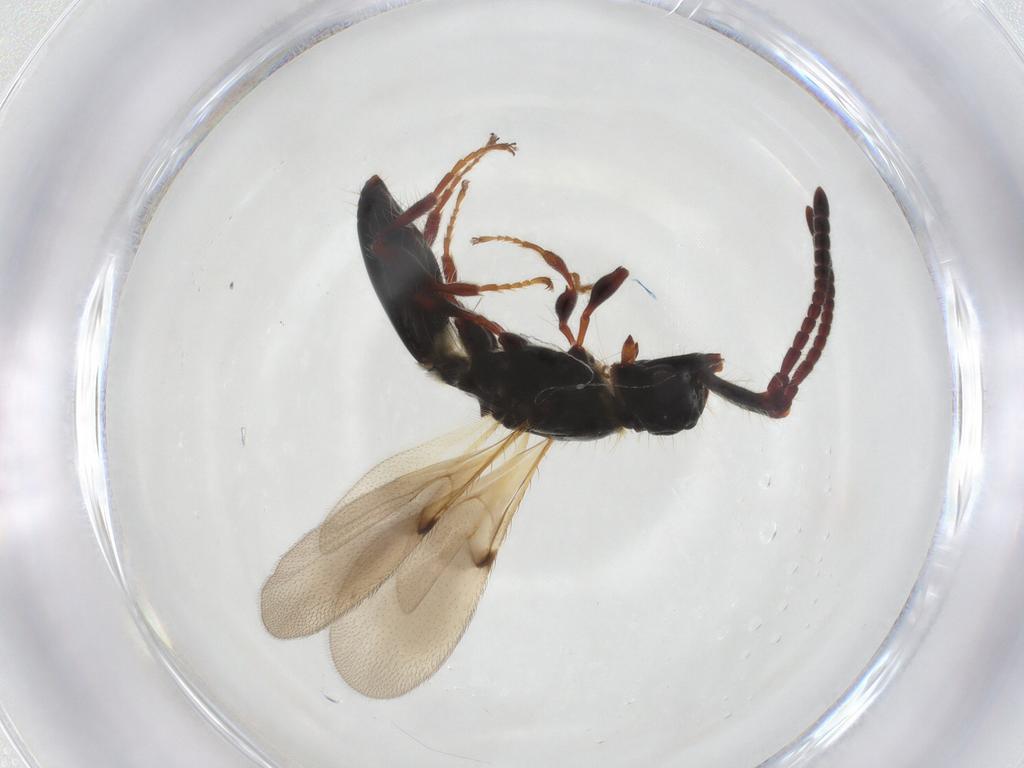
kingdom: Animalia
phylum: Arthropoda
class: Insecta
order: Hymenoptera
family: Diapriidae
